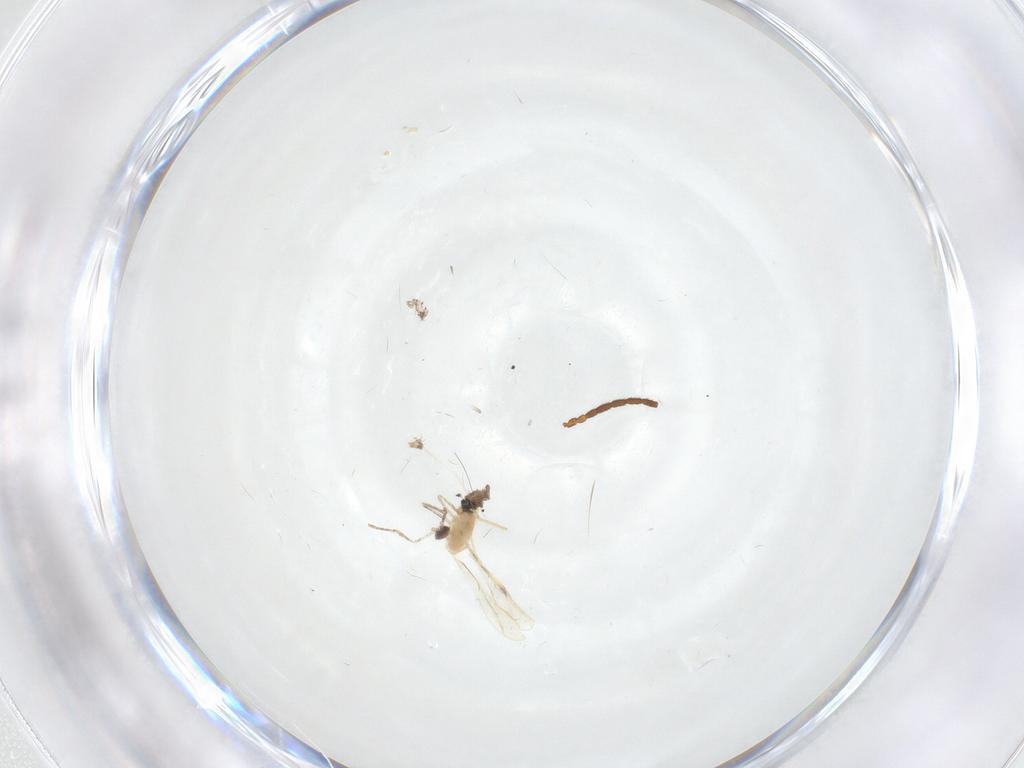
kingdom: Animalia
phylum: Arthropoda
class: Insecta
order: Diptera
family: Cecidomyiidae
